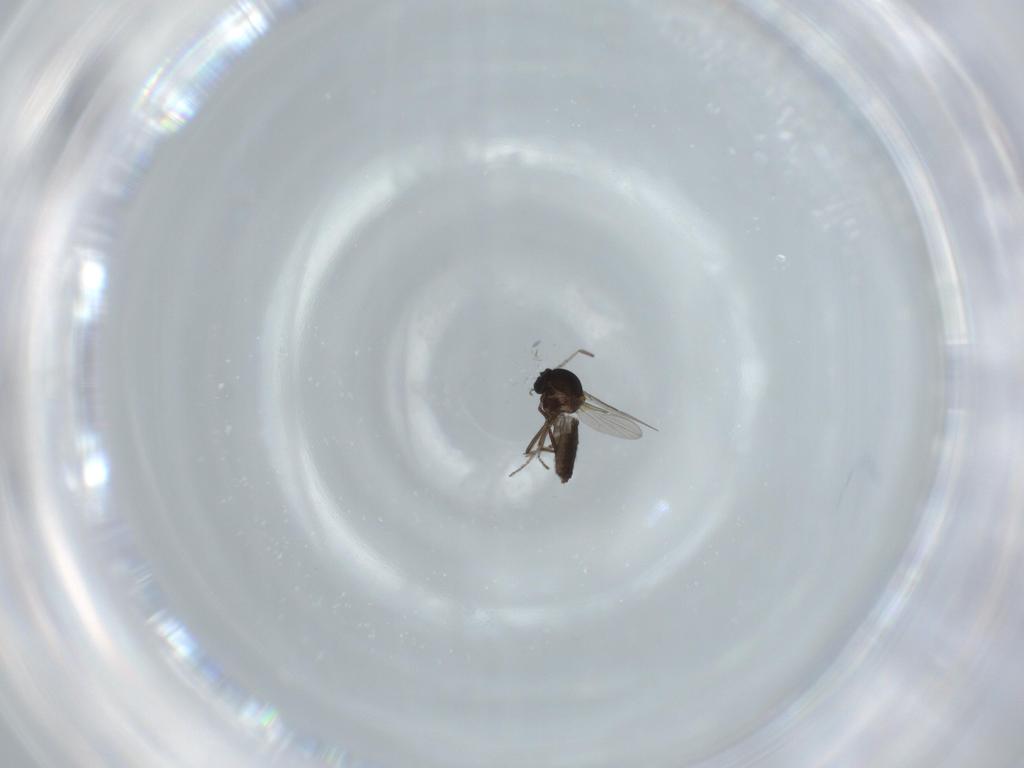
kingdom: Animalia
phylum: Arthropoda
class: Insecta
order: Diptera
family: Ceratopogonidae
